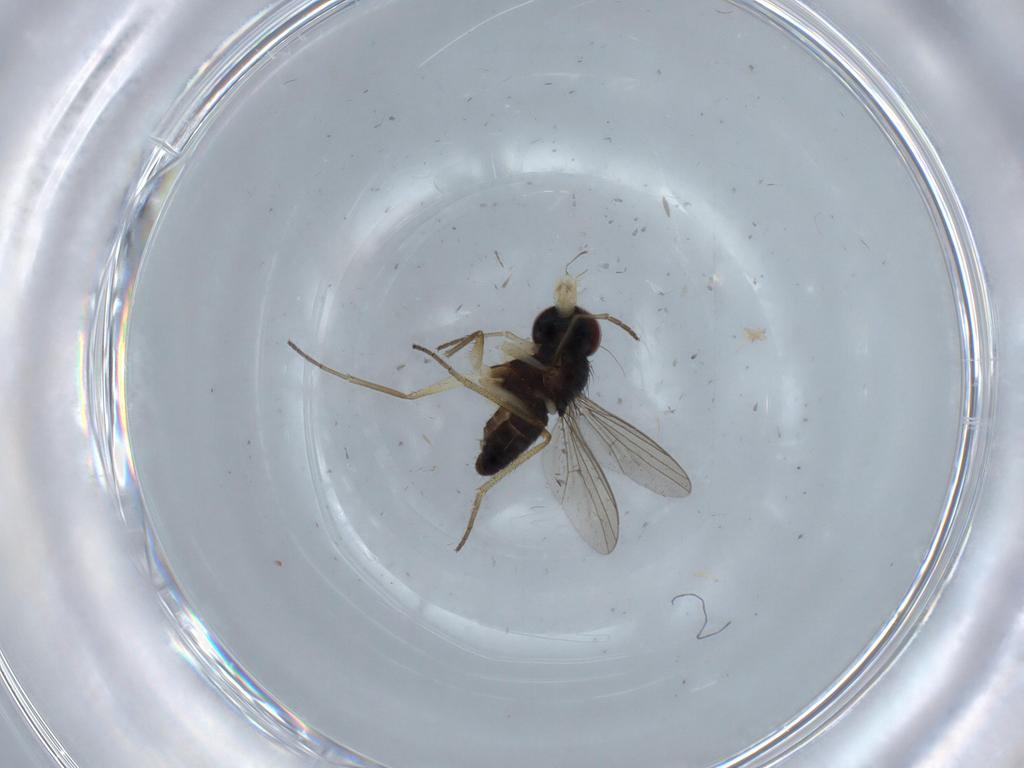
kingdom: Animalia
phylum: Arthropoda
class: Insecta
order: Diptera
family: Dolichopodidae
